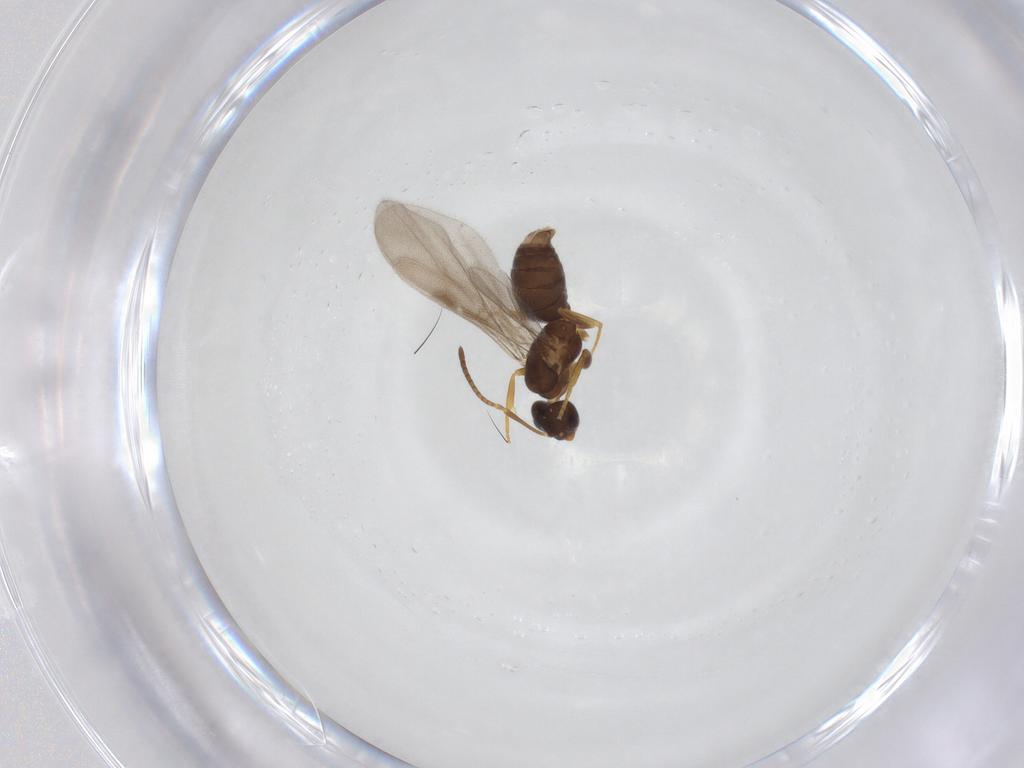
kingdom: Animalia
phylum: Arthropoda
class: Insecta
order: Hymenoptera
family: Formicidae
